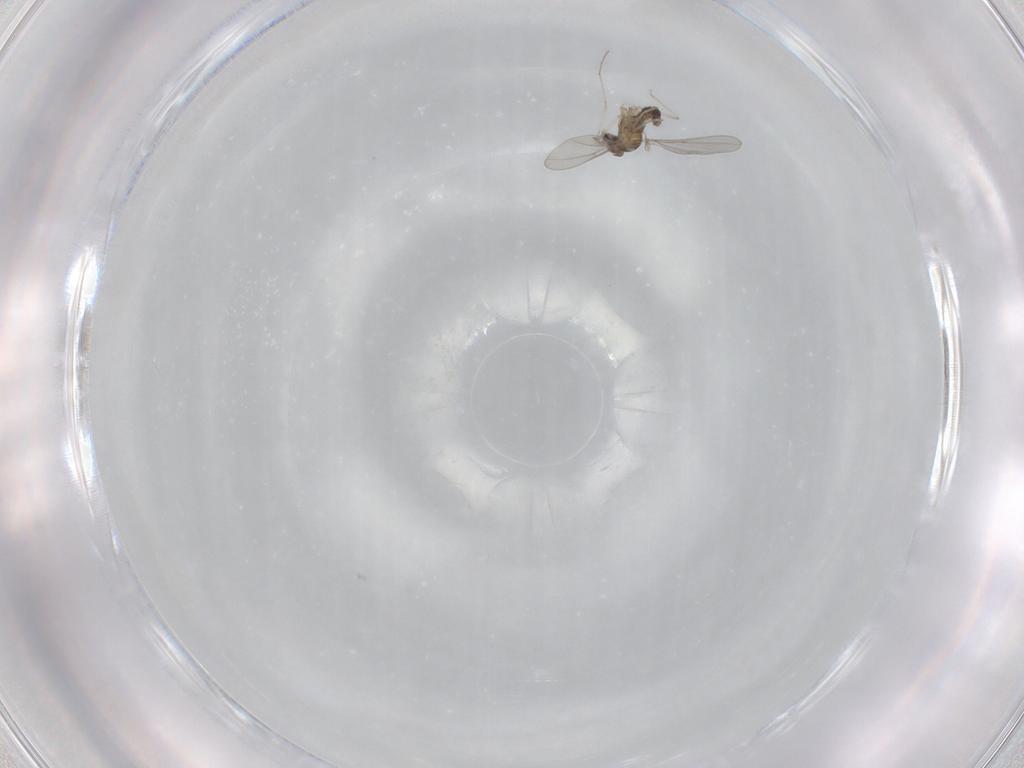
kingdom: Animalia
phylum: Arthropoda
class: Insecta
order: Diptera
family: Cecidomyiidae
